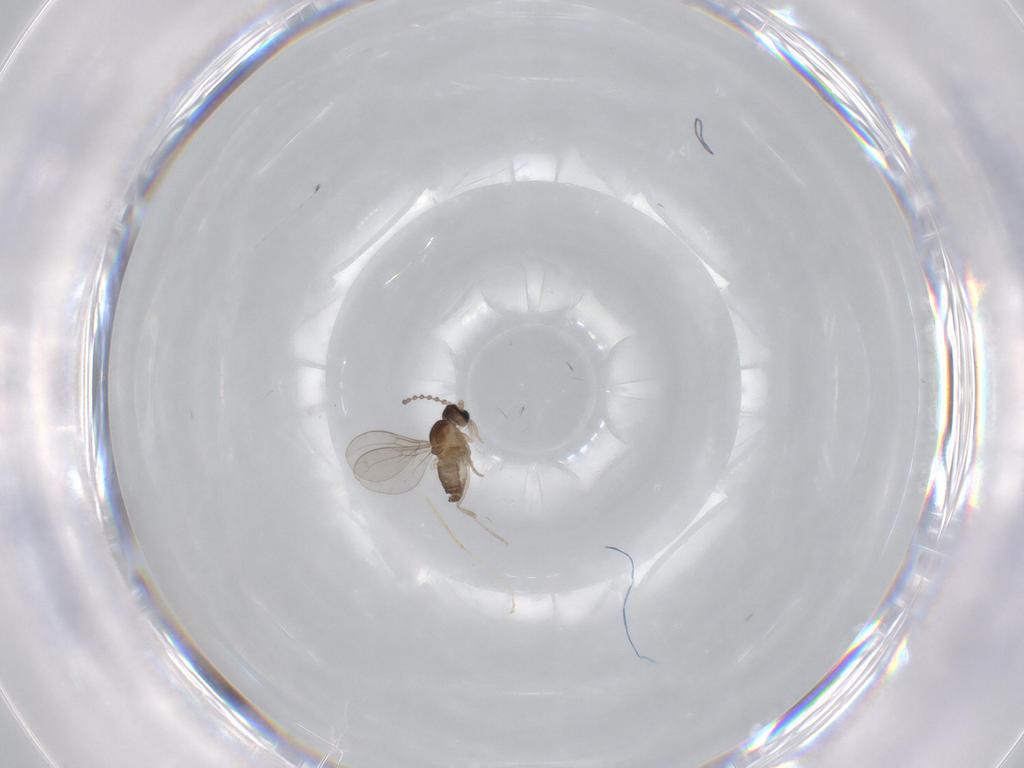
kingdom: Animalia
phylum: Arthropoda
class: Insecta
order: Diptera
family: Cecidomyiidae
